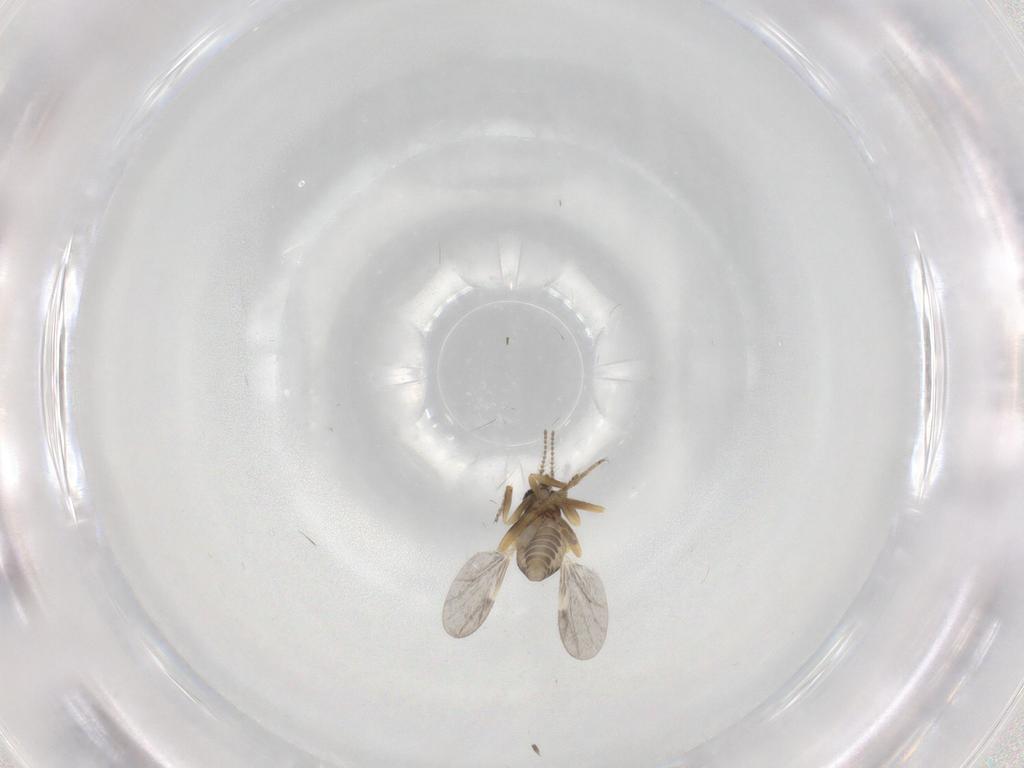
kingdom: Animalia
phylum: Arthropoda
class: Insecta
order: Diptera
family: Ceratopogonidae
